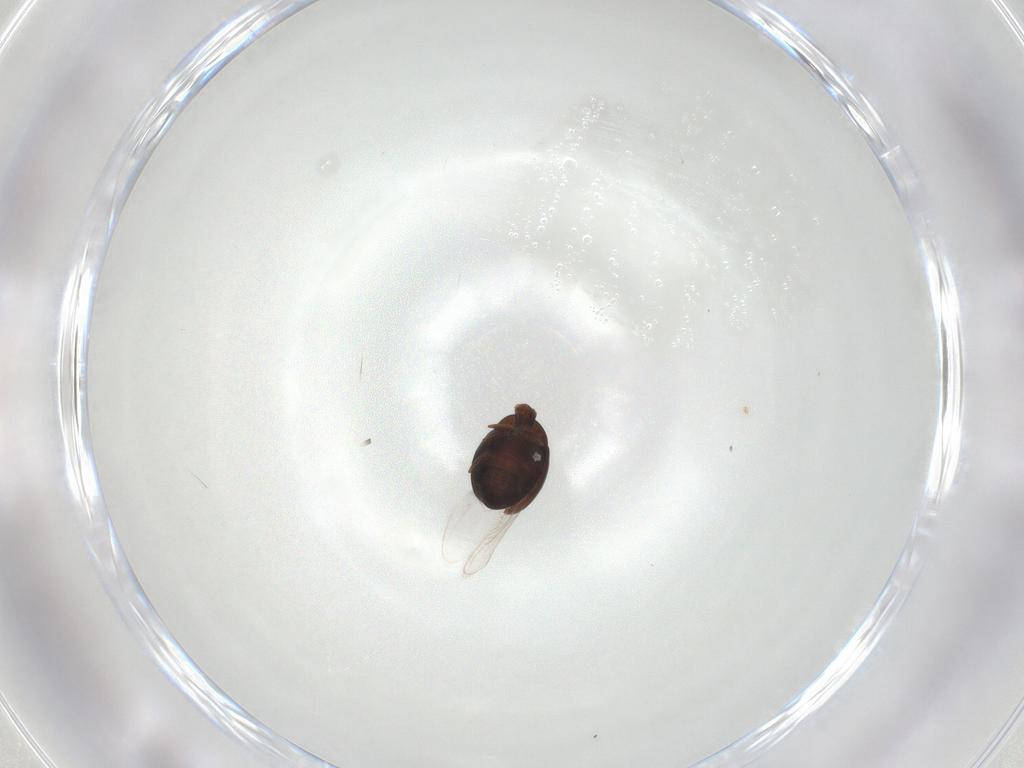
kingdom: Animalia
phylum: Arthropoda
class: Insecta
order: Coleoptera
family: Corylophidae
